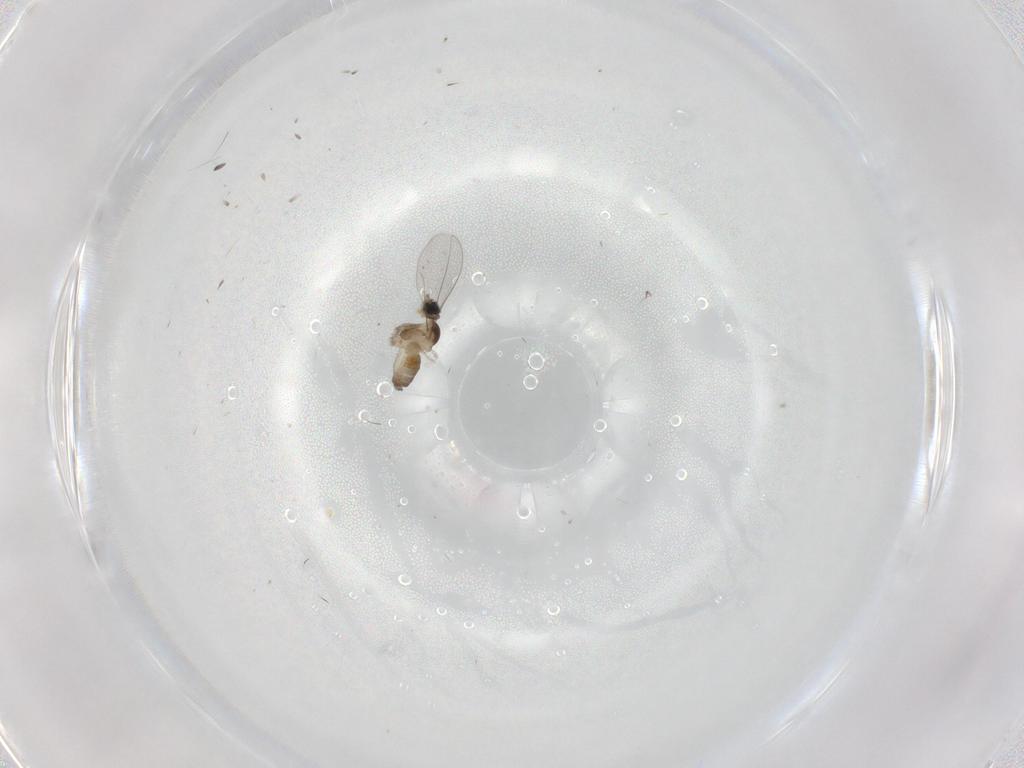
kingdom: Animalia
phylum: Arthropoda
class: Insecta
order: Diptera
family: Cecidomyiidae
